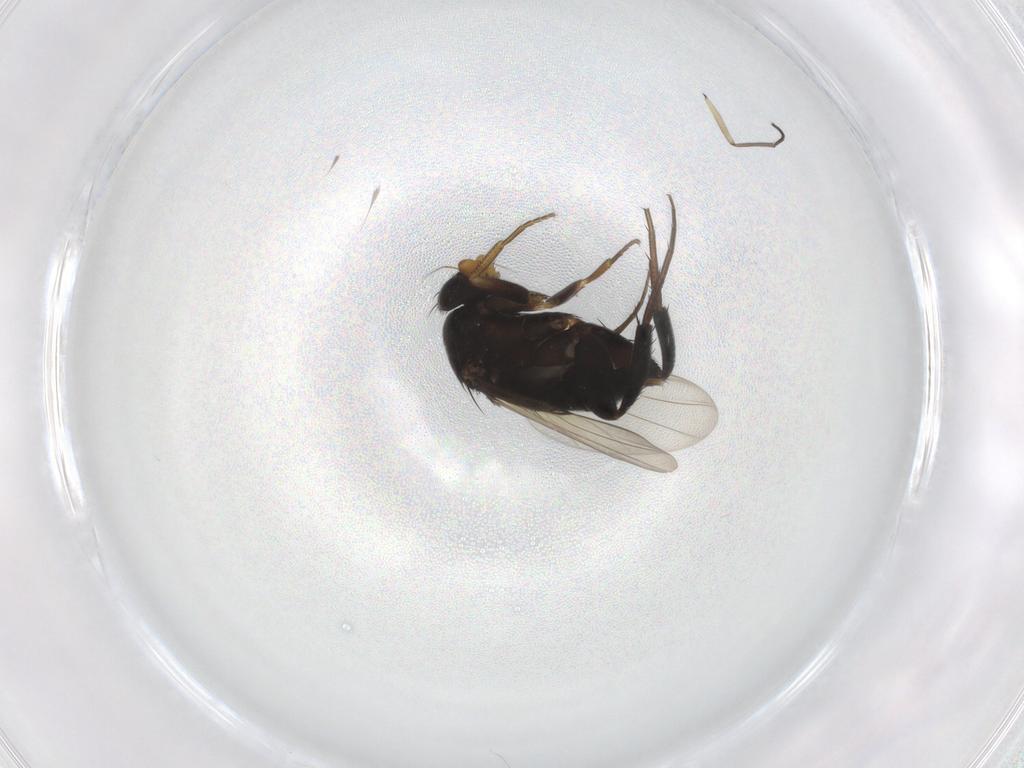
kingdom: Animalia
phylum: Arthropoda
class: Insecta
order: Diptera
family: Phoridae
